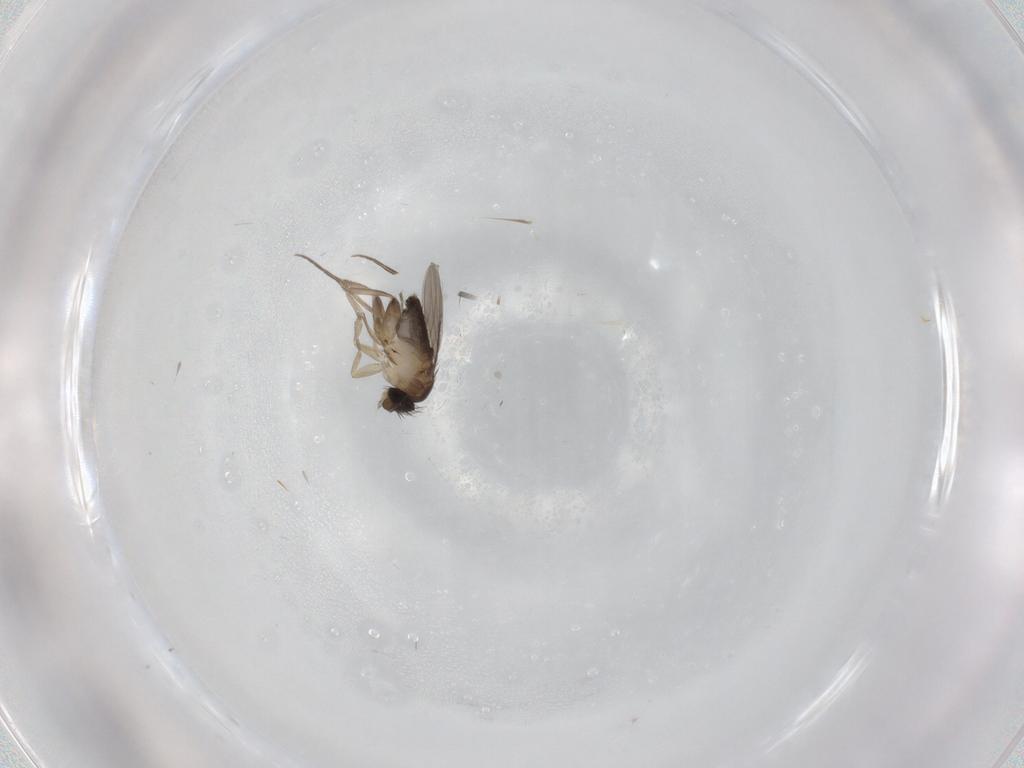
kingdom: Animalia
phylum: Arthropoda
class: Insecta
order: Diptera
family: Phoridae
